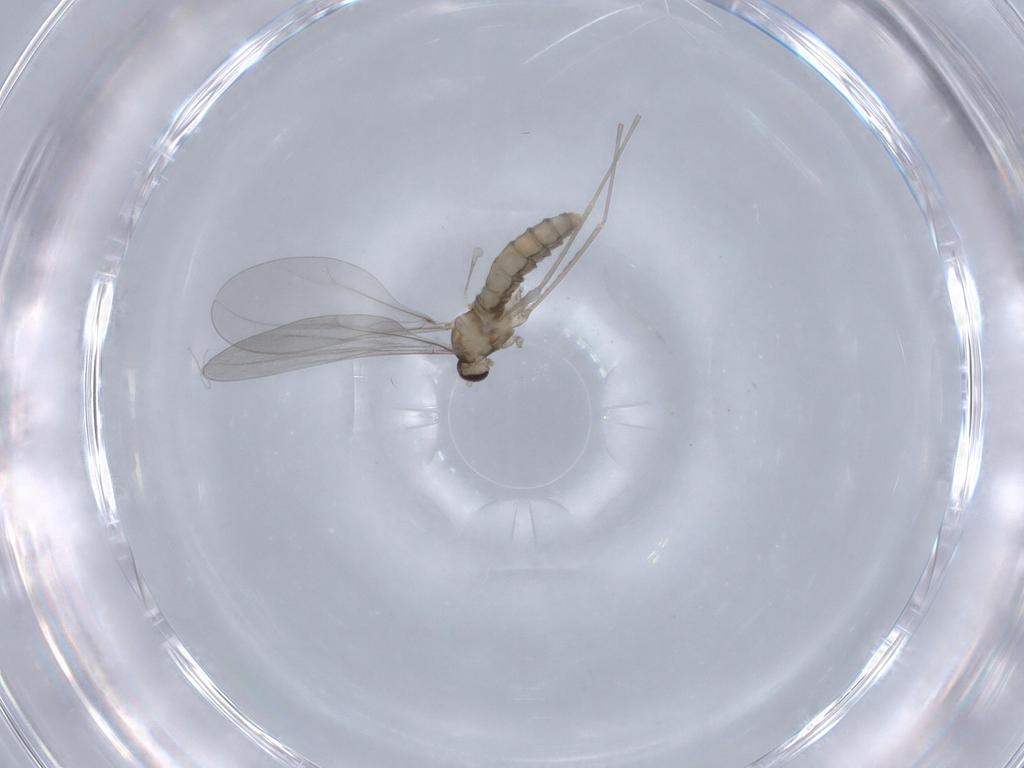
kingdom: Animalia
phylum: Arthropoda
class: Insecta
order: Diptera
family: Cecidomyiidae
